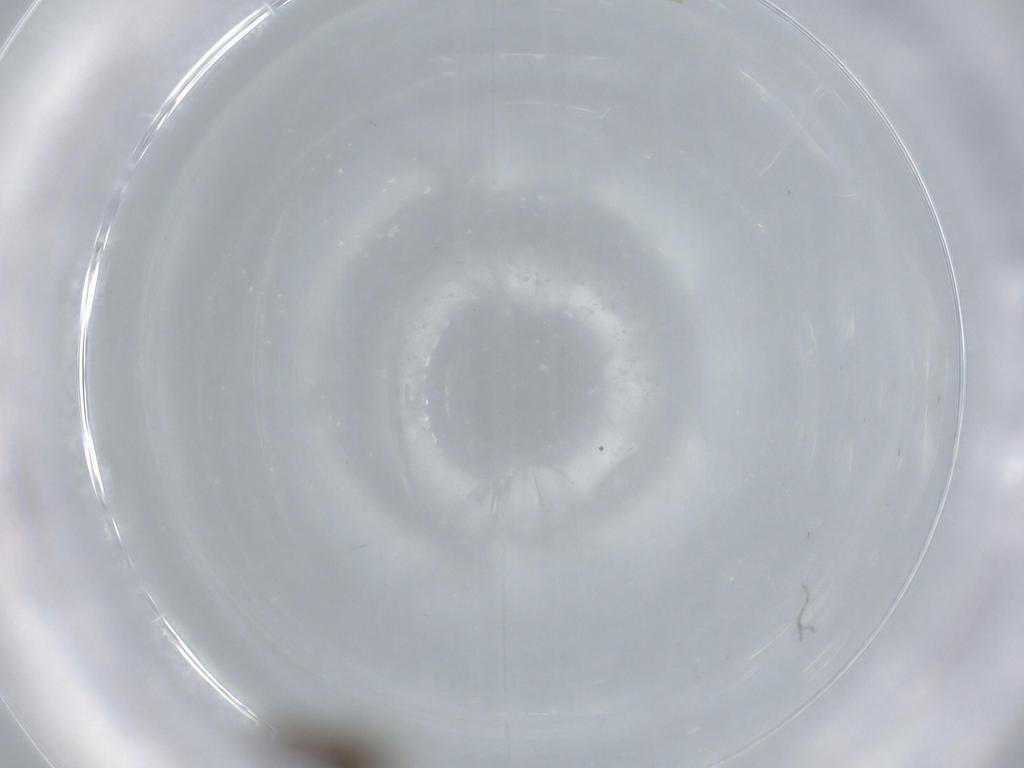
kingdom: Animalia
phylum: Arthropoda
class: Insecta
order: Diptera
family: Phoridae
